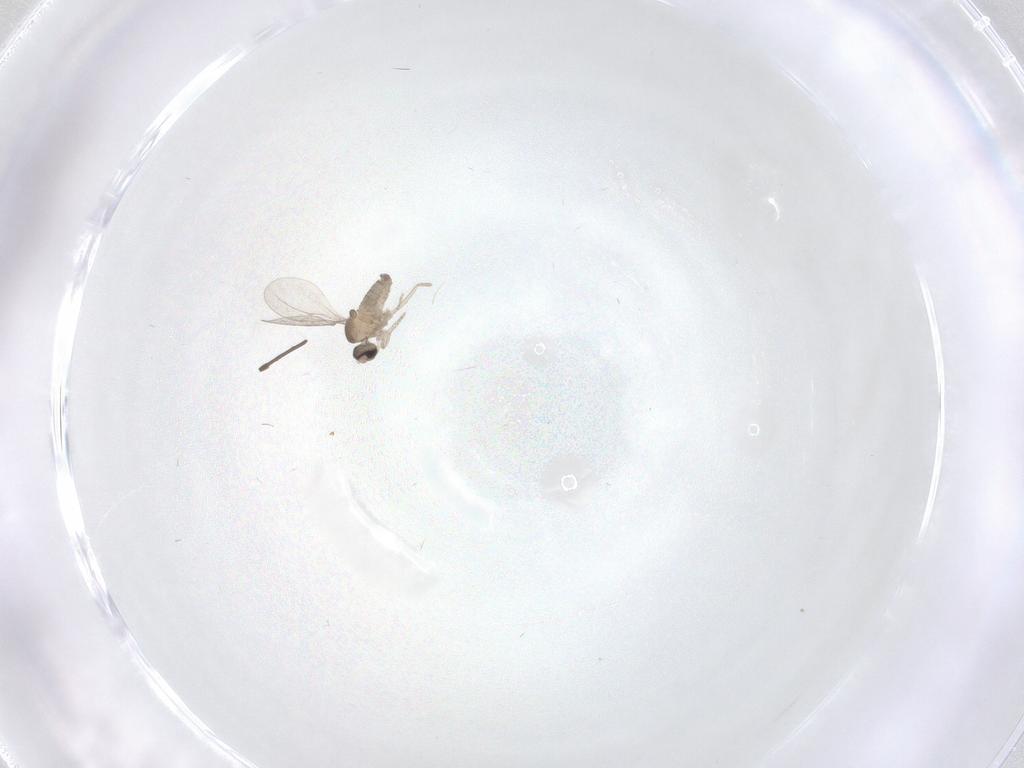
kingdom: Animalia
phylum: Arthropoda
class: Insecta
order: Diptera
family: Cecidomyiidae
